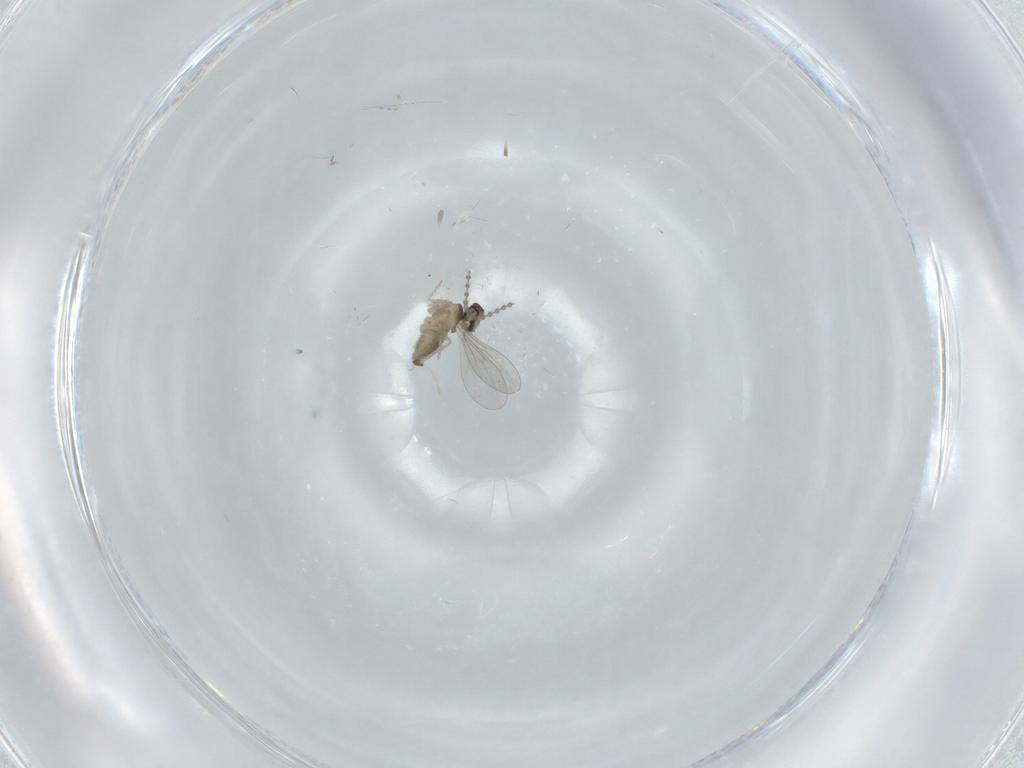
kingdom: Animalia
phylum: Arthropoda
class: Insecta
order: Diptera
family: Cecidomyiidae
